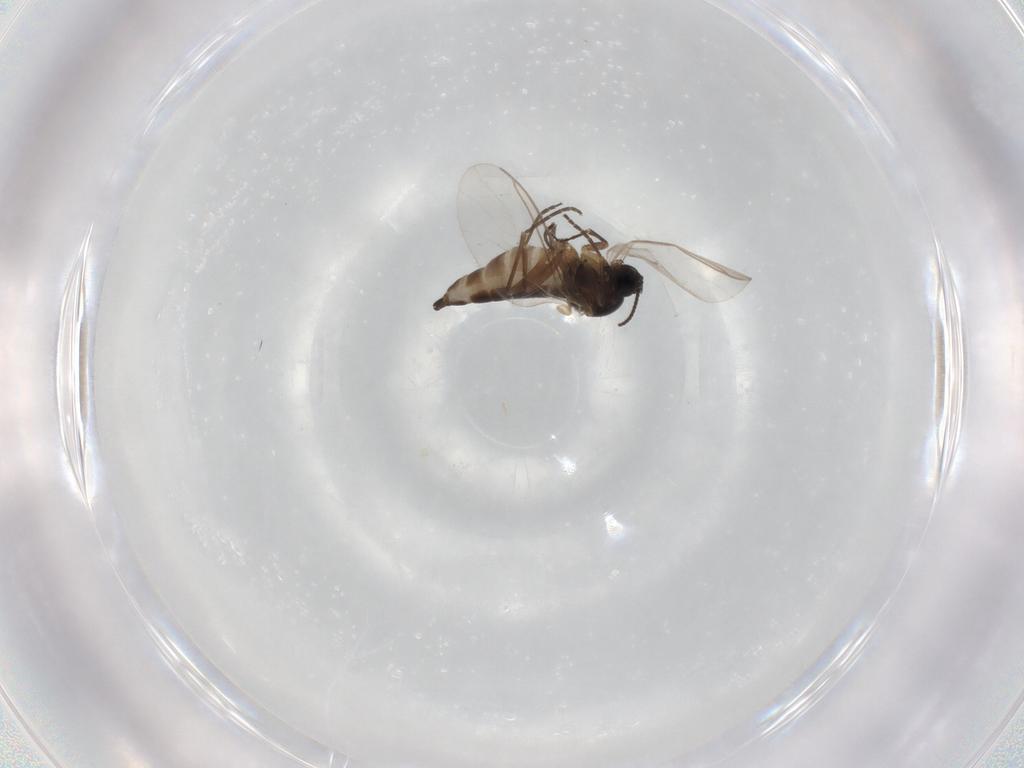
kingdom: Animalia
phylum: Arthropoda
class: Insecta
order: Diptera
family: Sciaridae
